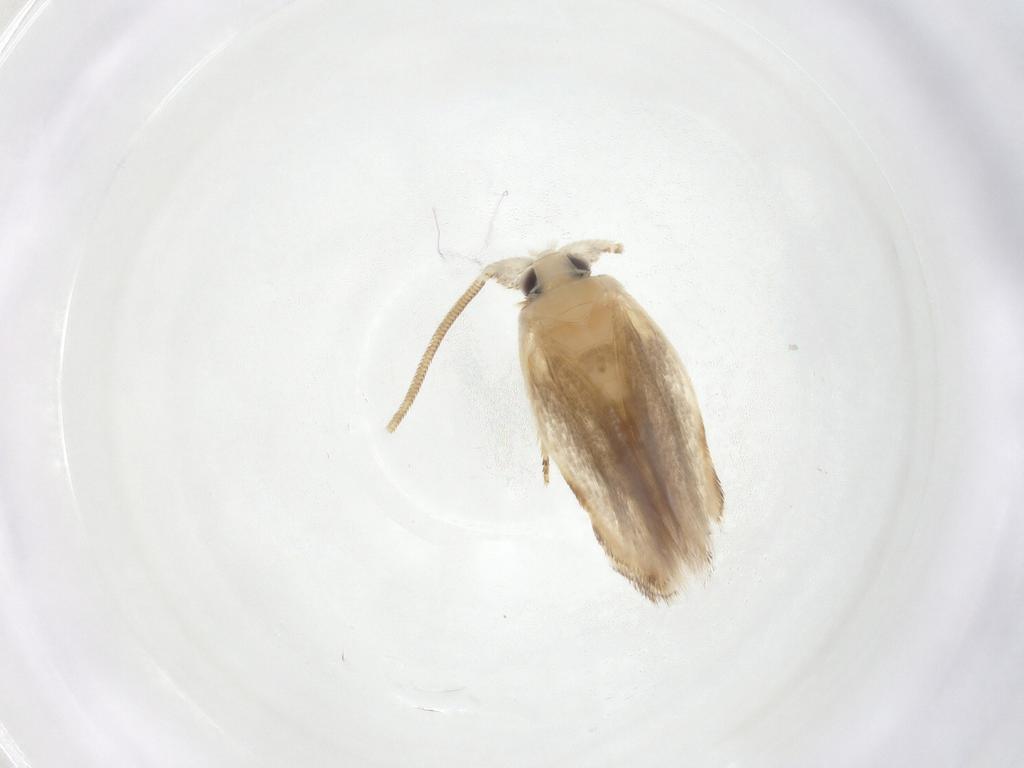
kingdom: Animalia
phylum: Arthropoda
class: Insecta
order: Lepidoptera
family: Opostegidae
